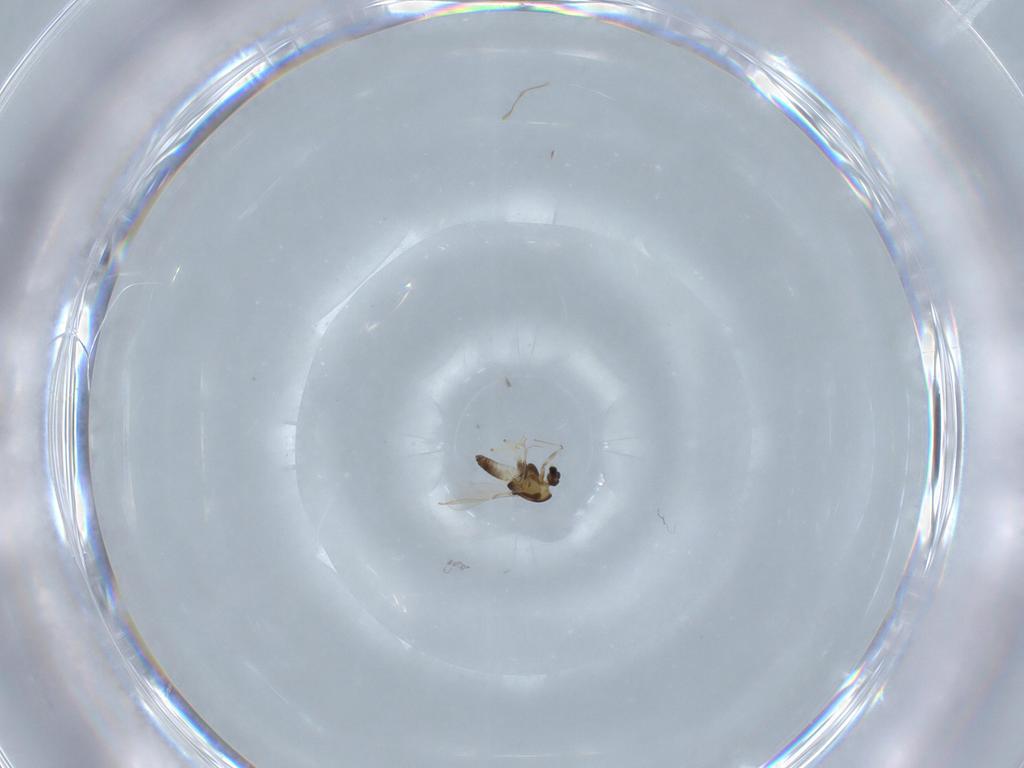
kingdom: Animalia
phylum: Arthropoda
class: Insecta
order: Diptera
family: Chironomidae
